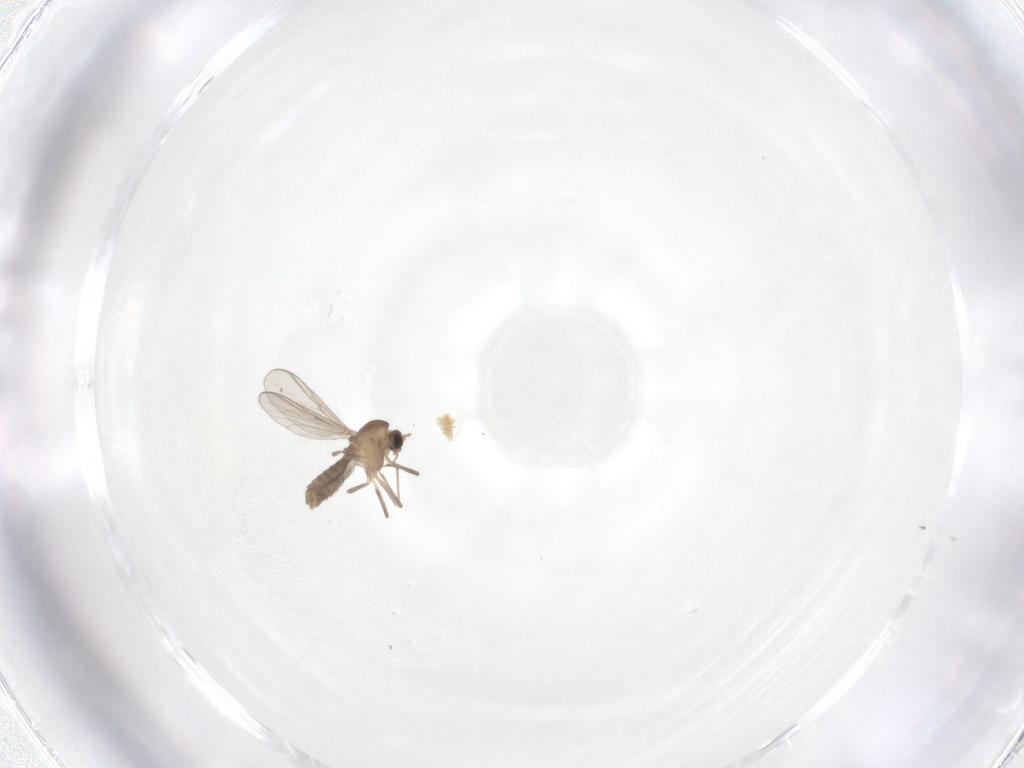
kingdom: Animalia
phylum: Arthropoda
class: Insecta
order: Diptera
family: Chironomidae
